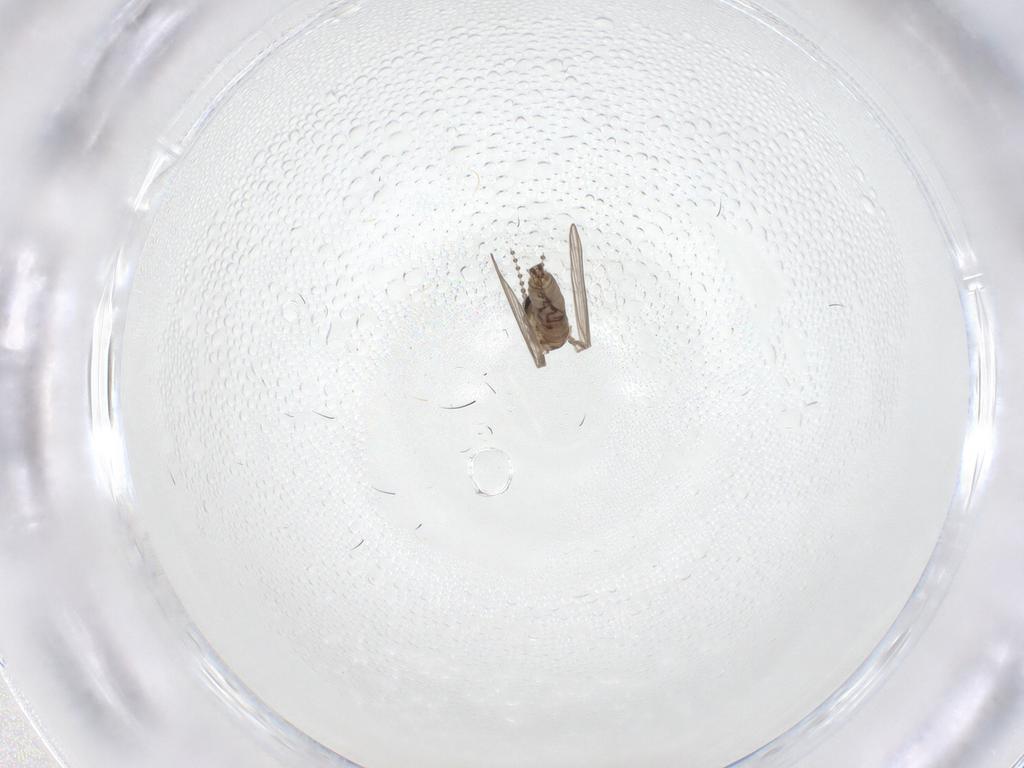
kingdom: Animalia
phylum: Arthropoda
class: Insecta
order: Diptera
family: Micropezidae
